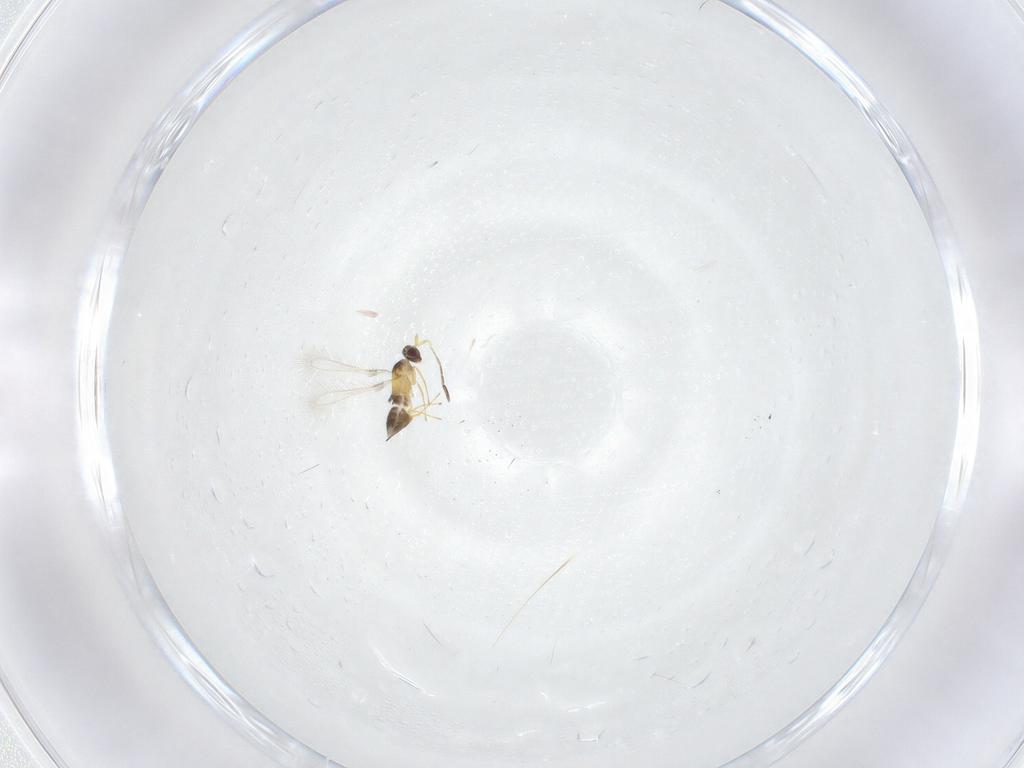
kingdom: Animalia
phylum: Arthropoda
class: Insecta
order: Hymenoptera
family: Mymaridae
